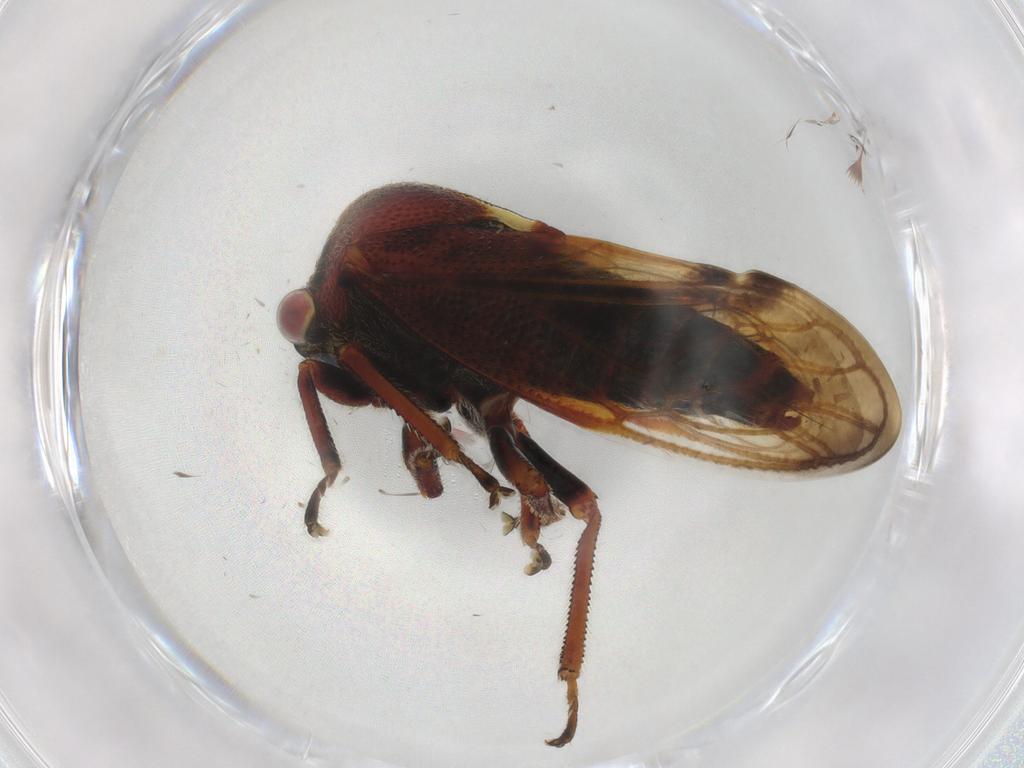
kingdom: Animalia
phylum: Arthropoda
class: Insecta
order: Hemiptera
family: Membracidae
